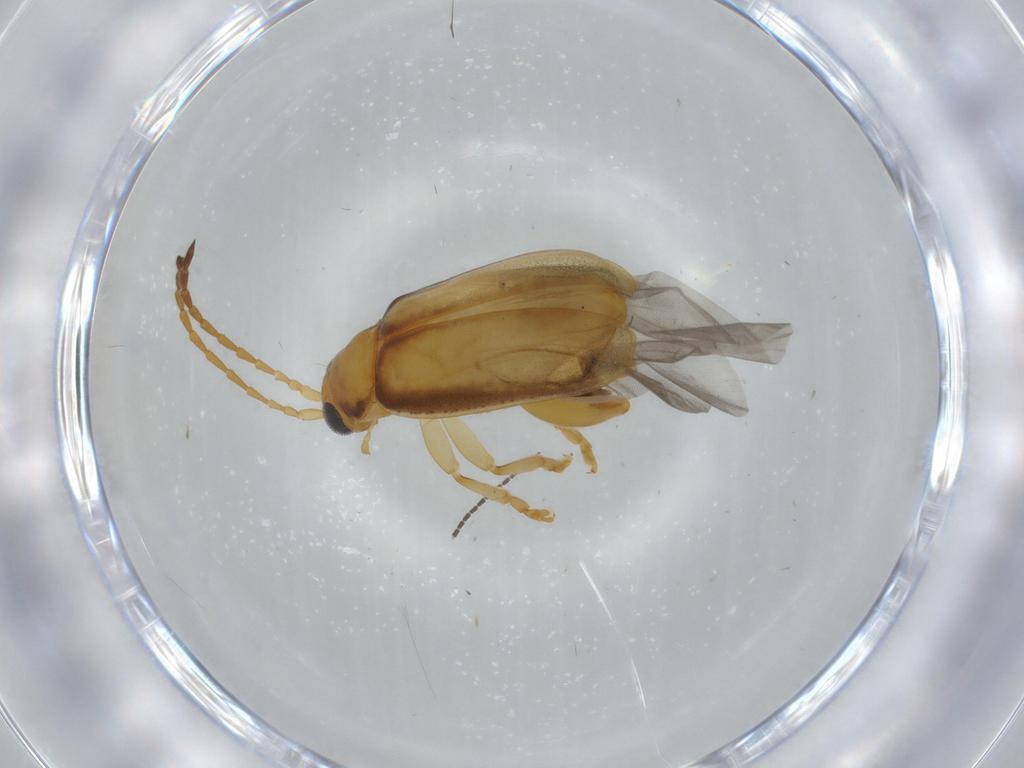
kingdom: Animalia
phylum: Arthropoda
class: Insecta
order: Coleoptera
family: Chrysomelidae
